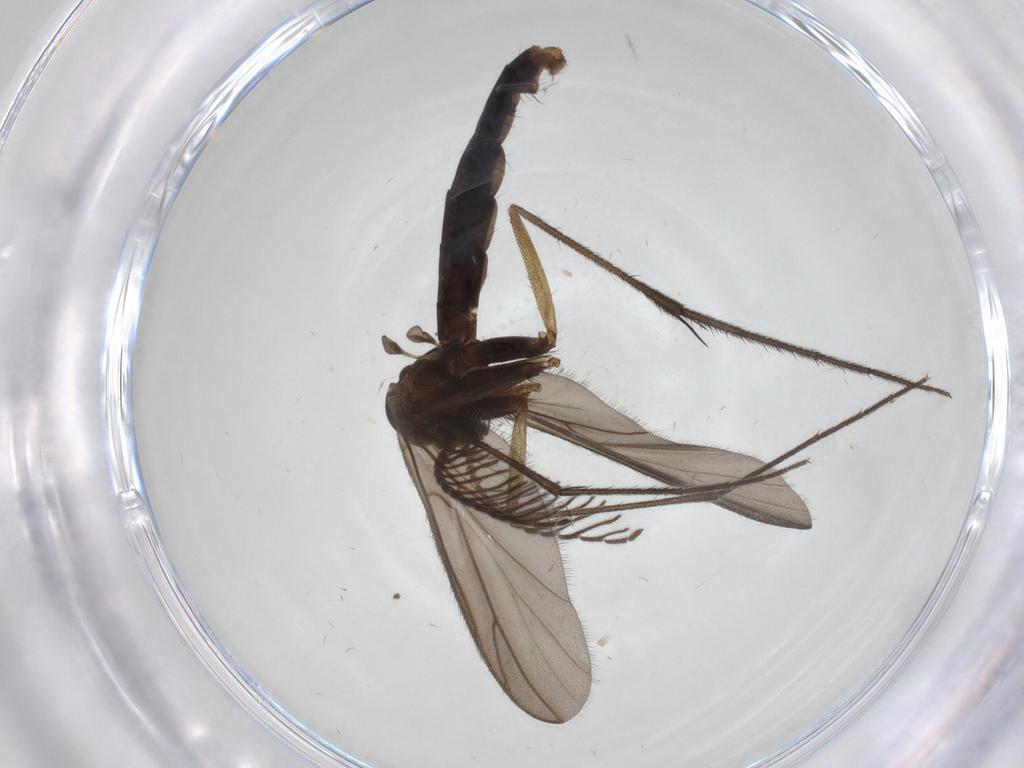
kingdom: Animalia
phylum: Arthropoda
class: Insecta
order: Diptera
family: Ditomyiidae
